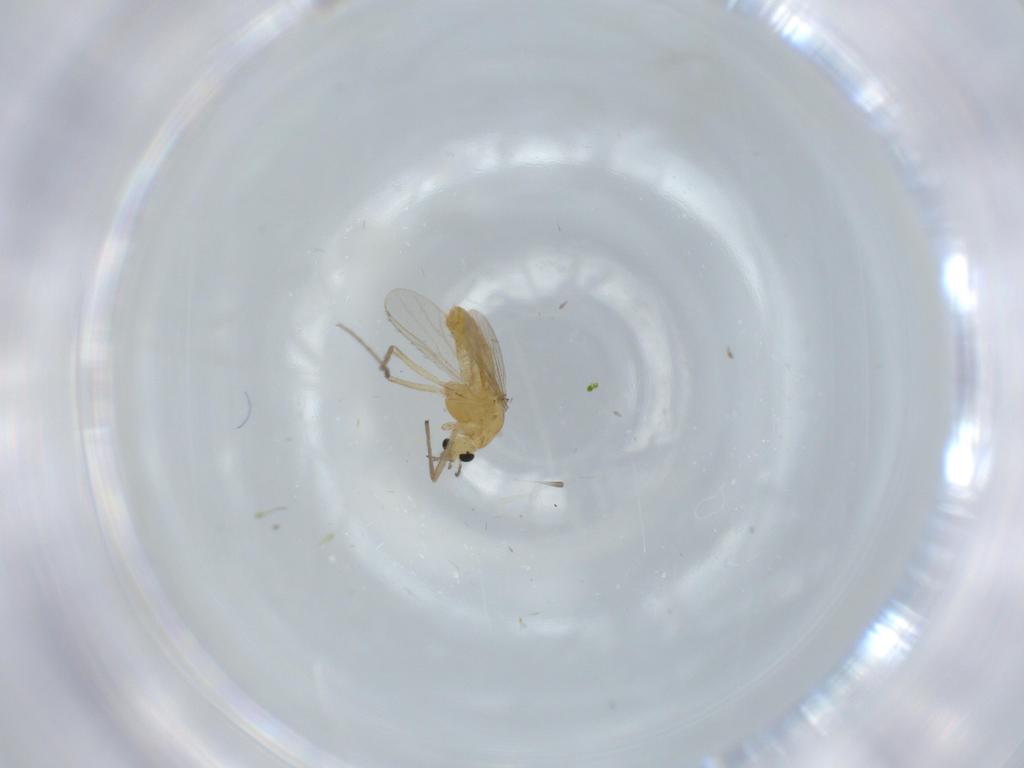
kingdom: Animalia
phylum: Arthropoda
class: Insecta
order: Diptera
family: Chironomidae
